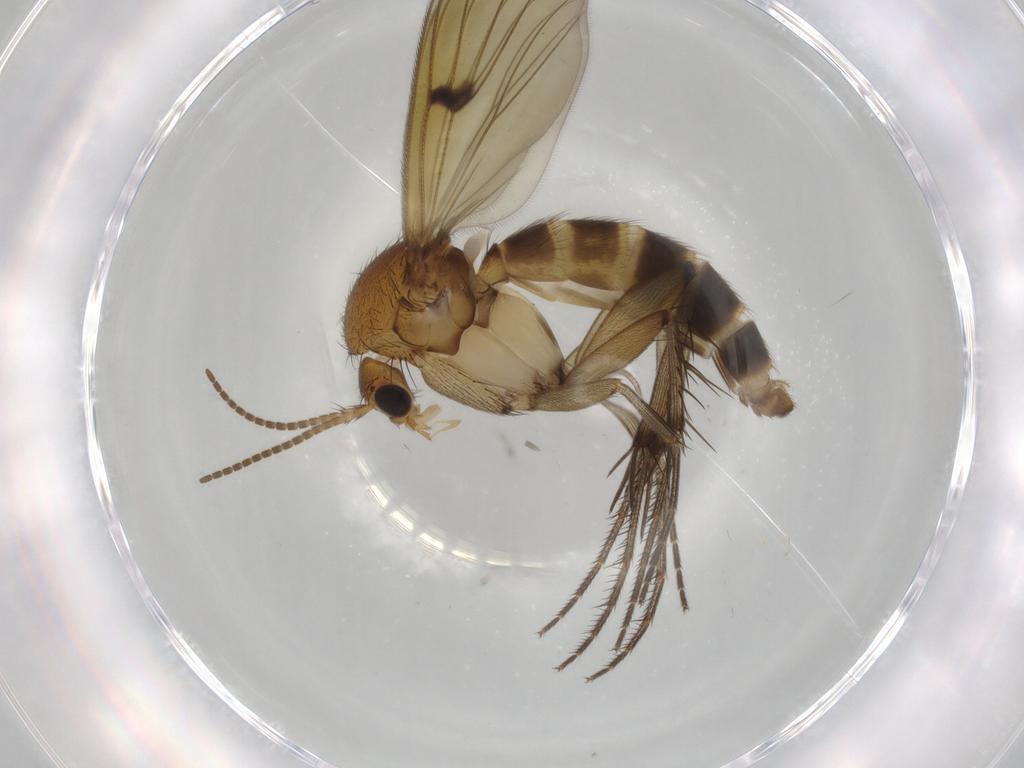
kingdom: Animalia
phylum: Arthropoda
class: Insecta
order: Diptera
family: Mycetophilidae
